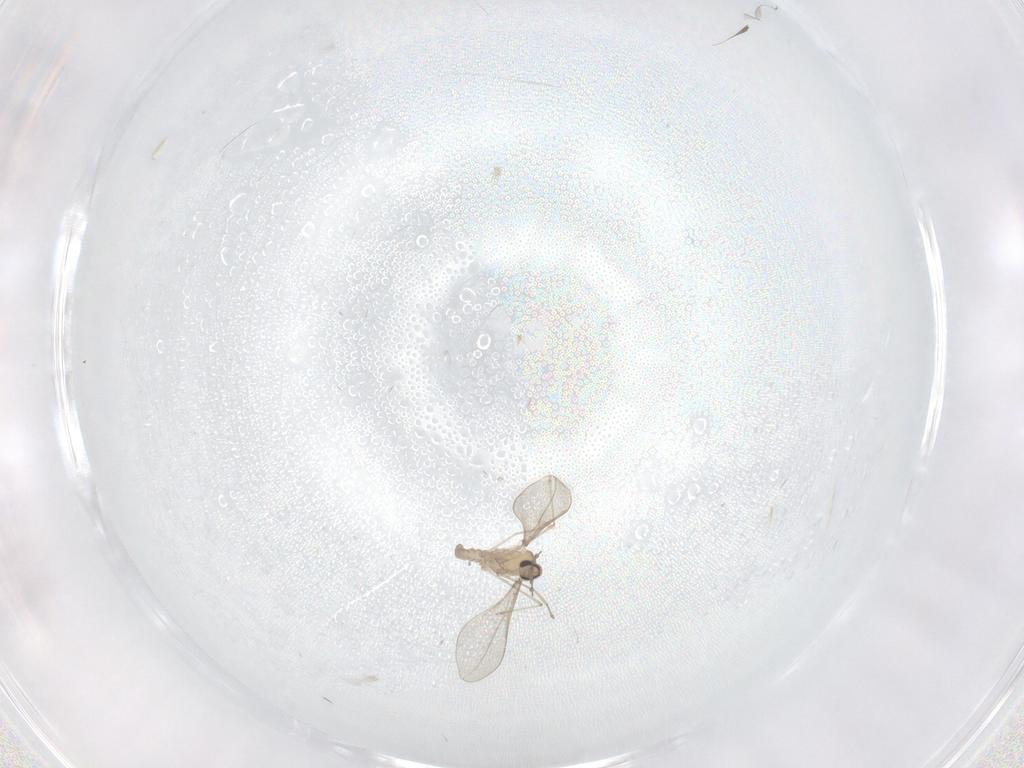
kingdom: Animalia
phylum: Arthropoda
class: Insecta
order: Diptera
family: Cecidomyiidae
